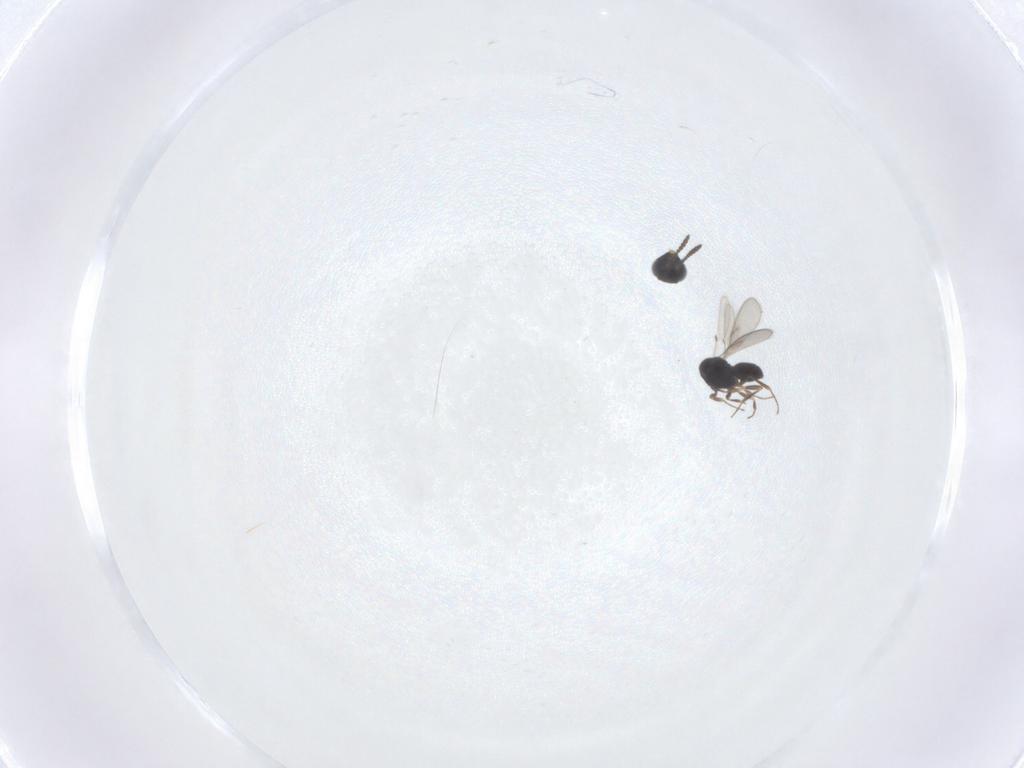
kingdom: Animalia
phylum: Arthropoda
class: Insecta
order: Hymenoptera
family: Scelionidae
